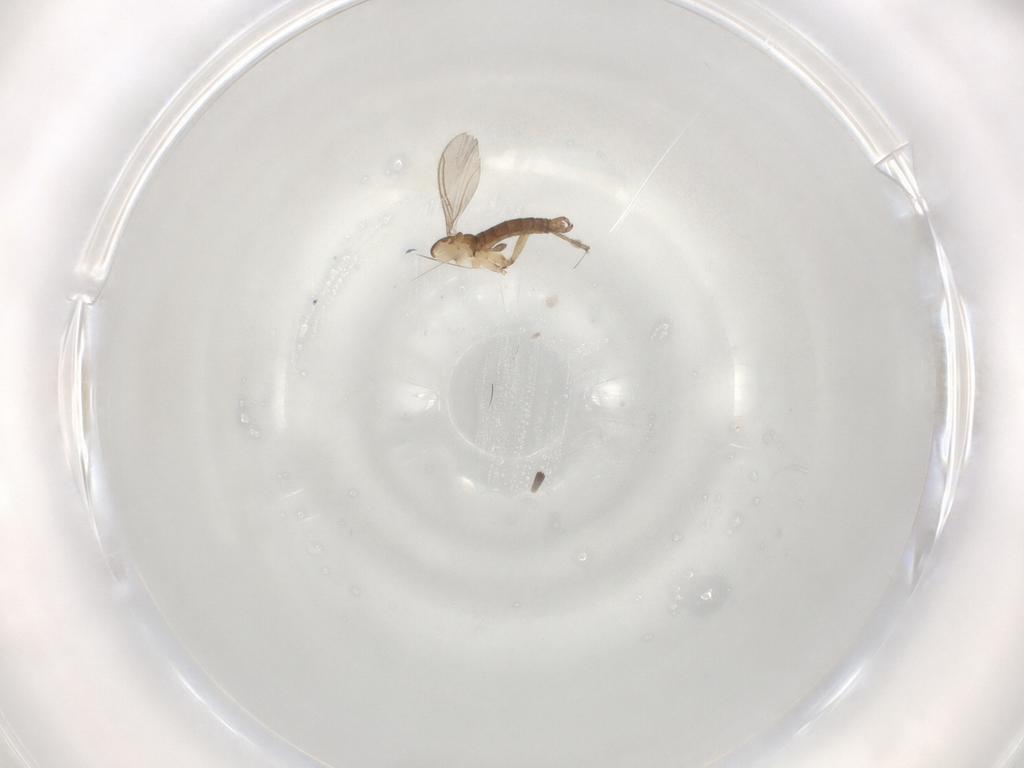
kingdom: Animalia
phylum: Arthropoda
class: Insecta
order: Diptera
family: Sciaridae
